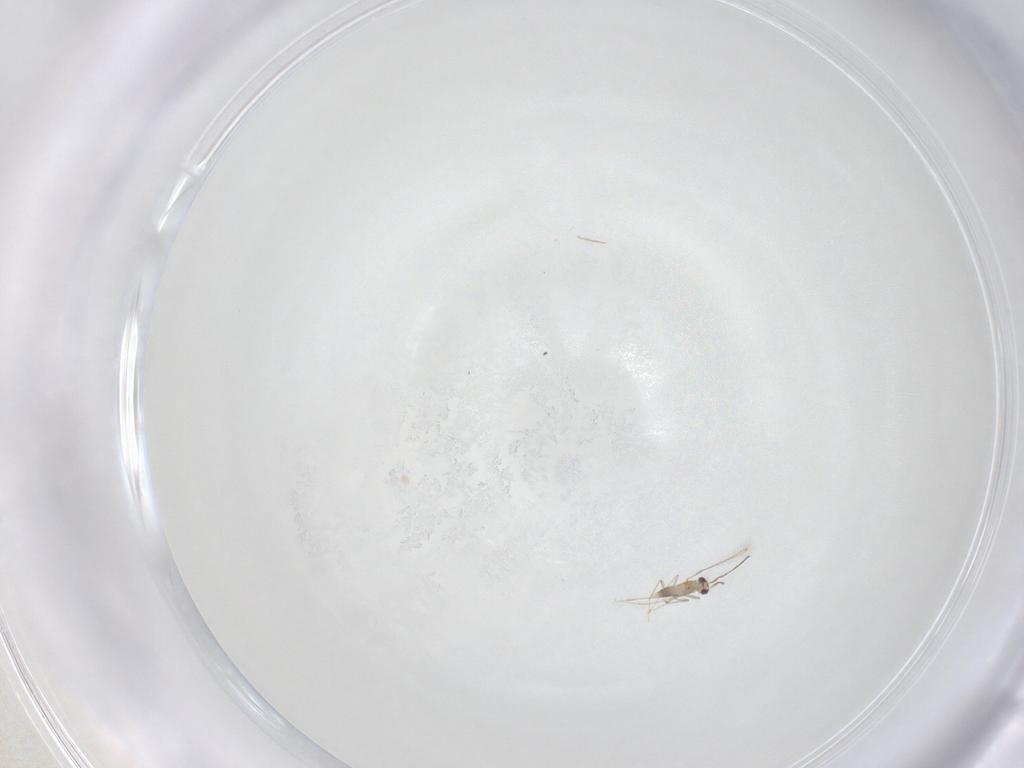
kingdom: Animalia
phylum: Arthropoda
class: Insecta
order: Hymenoptera
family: Mymaridae
